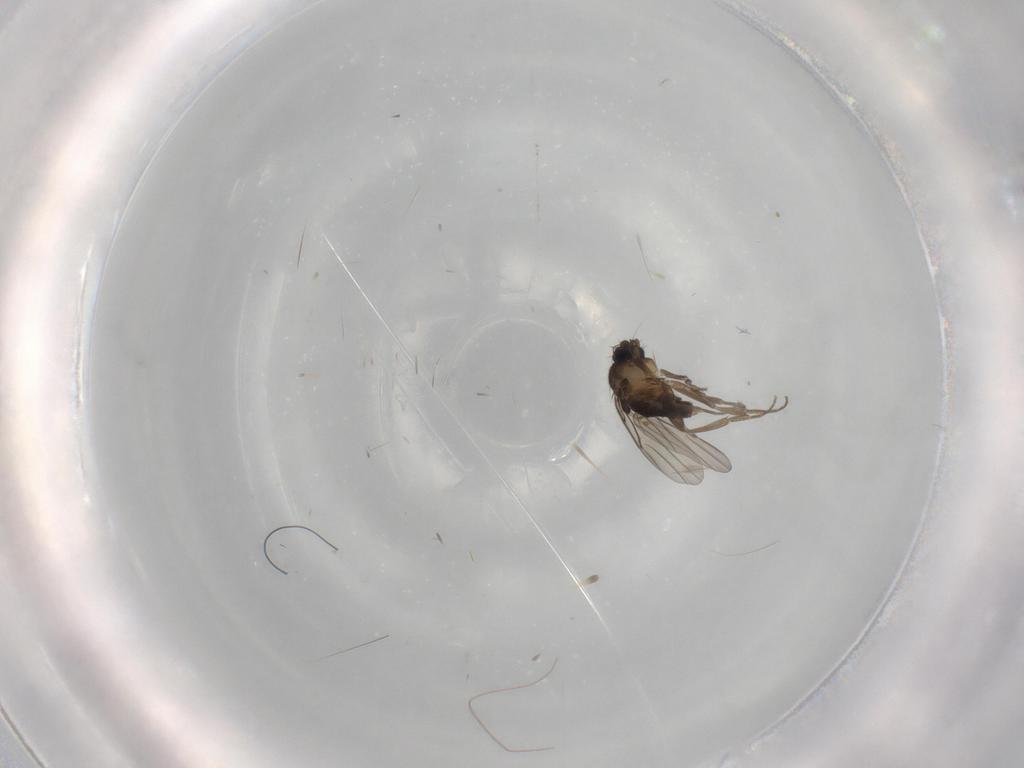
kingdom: Animalia
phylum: Arthropoda
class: Insecta
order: Diptera
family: Phoridae
